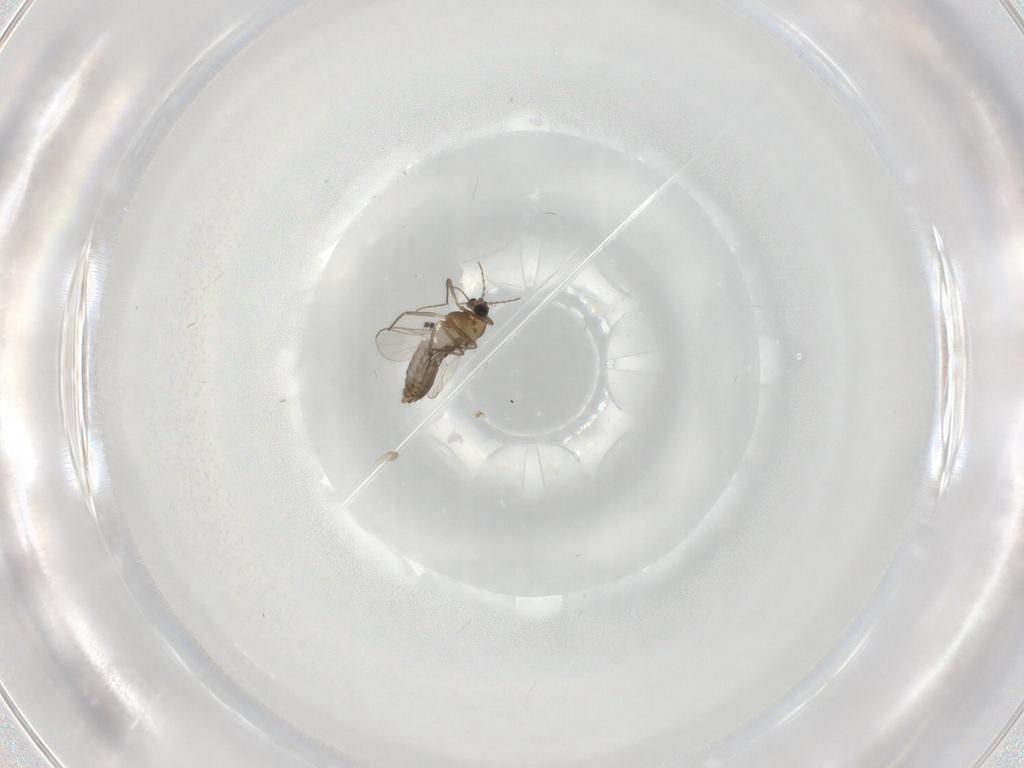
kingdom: Animalia
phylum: Arthropoda
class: Insecta
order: Diptera
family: Chironomidae
